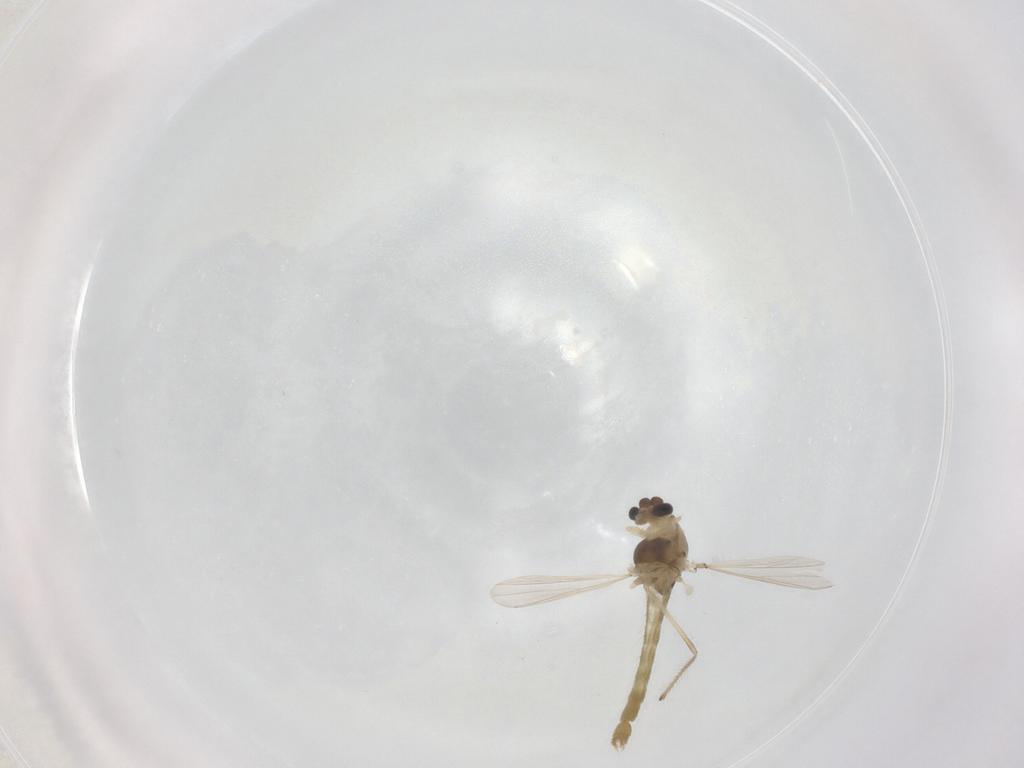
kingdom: Animalia
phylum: Arthropoda
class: Insecta
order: Diptera
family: Chironomidae
